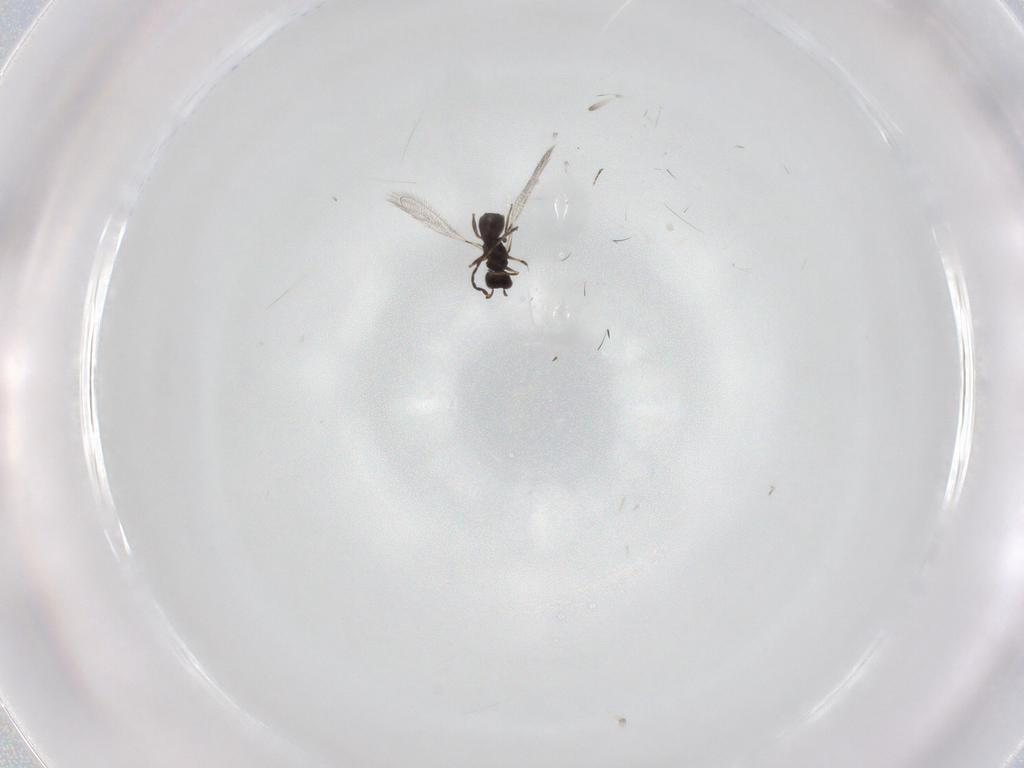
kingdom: Animalia
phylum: Arthropoda
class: Insecta
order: Hymenoptera
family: Mymaridae
